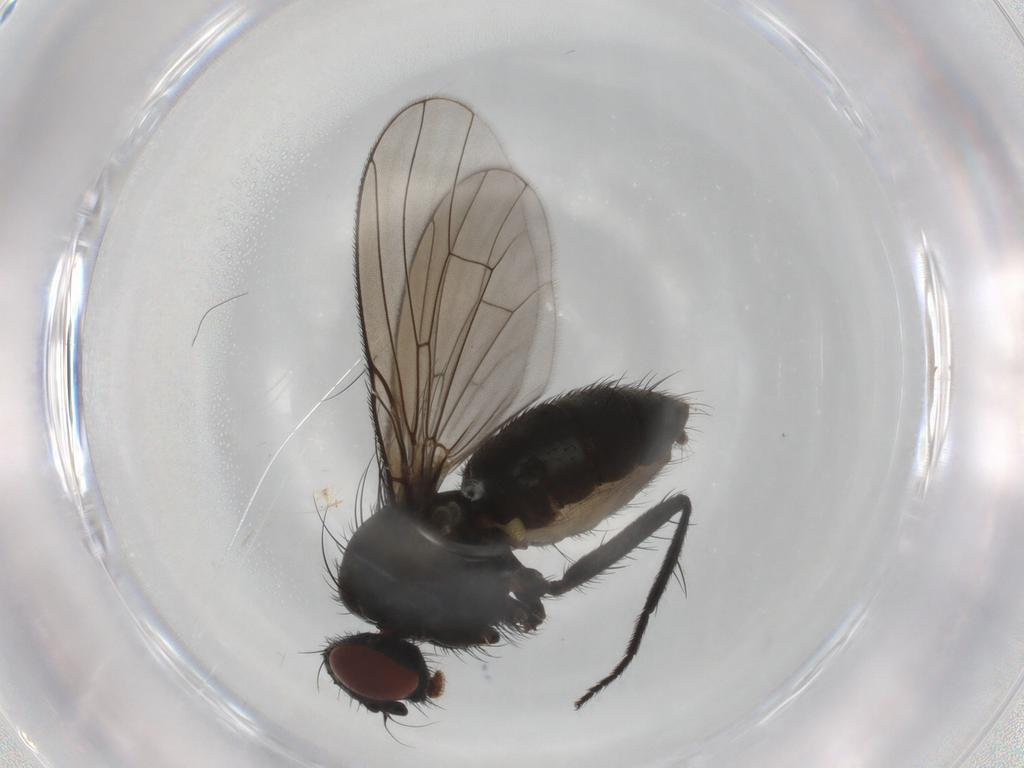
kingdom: Animalia
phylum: Arthropoda
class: Insecta
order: Diptera
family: Muscidae
